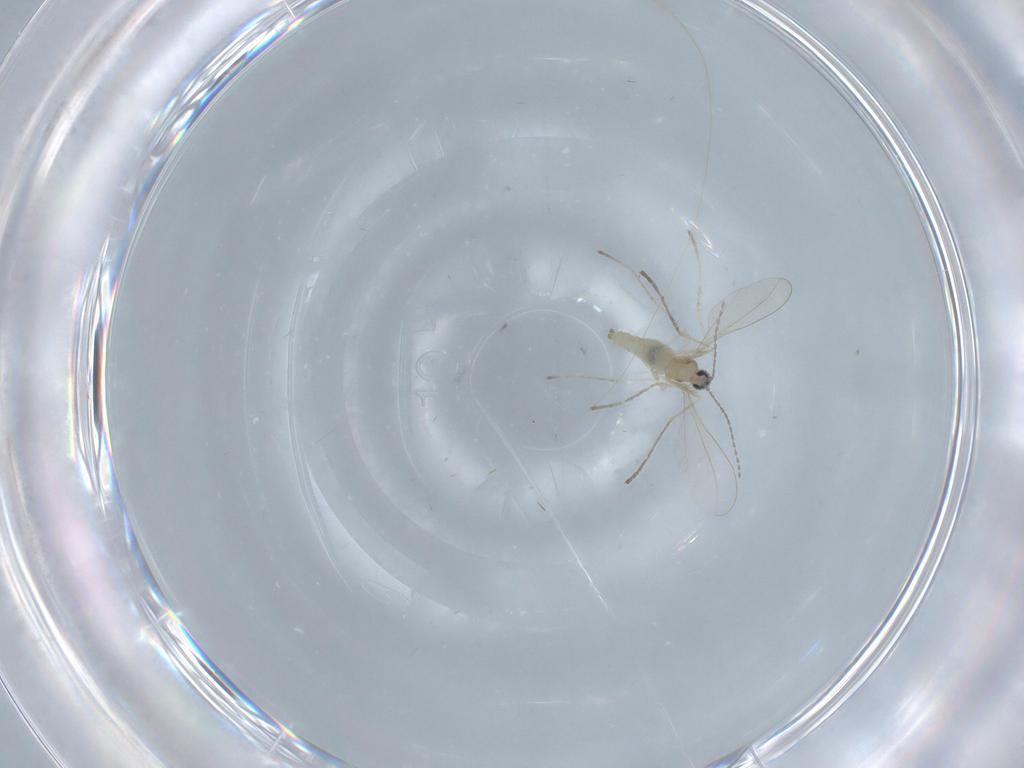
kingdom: Animalia
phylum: Arthropoda
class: Insecta
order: Diptera
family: Cecidomyiidae
